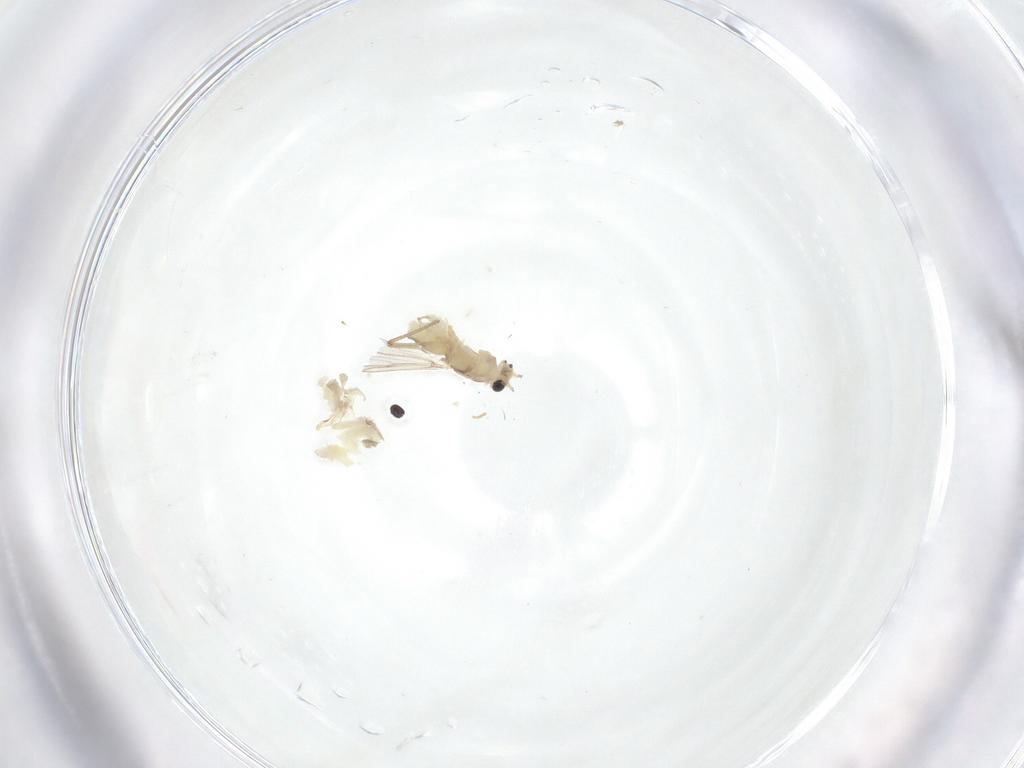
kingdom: Animalia
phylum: Arthropoda
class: Insecta
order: Diptera
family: Chironomidae
